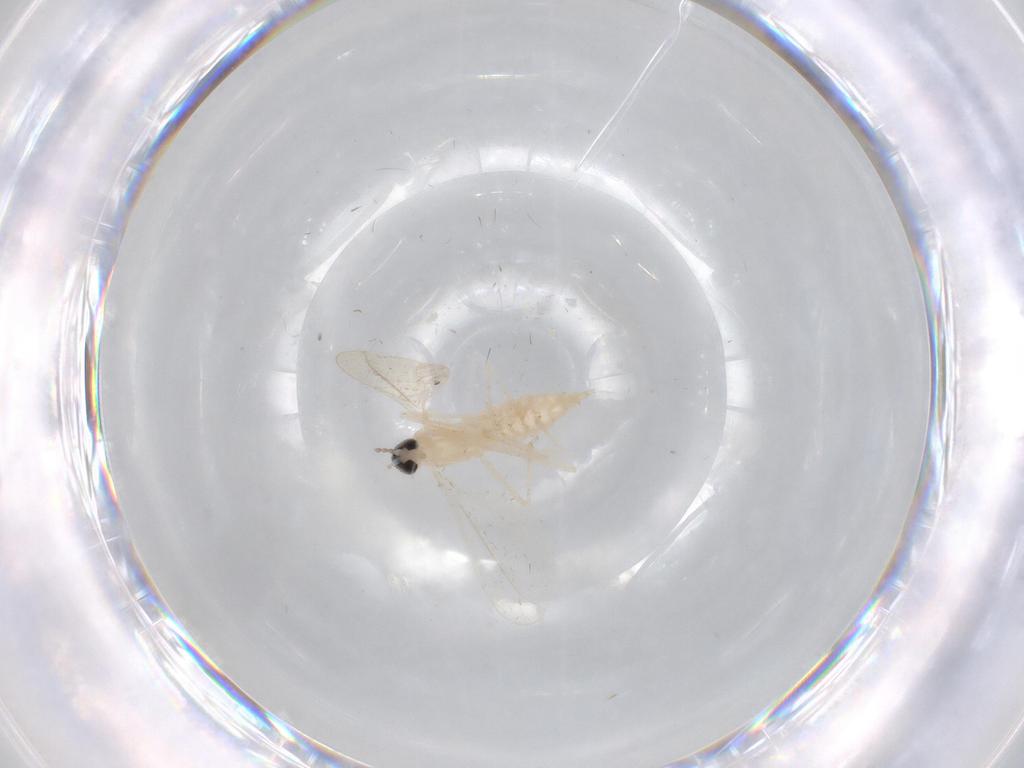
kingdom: Animalia
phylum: Arthropoda
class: Insecta
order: Diptera
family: Cecidomyiidae
